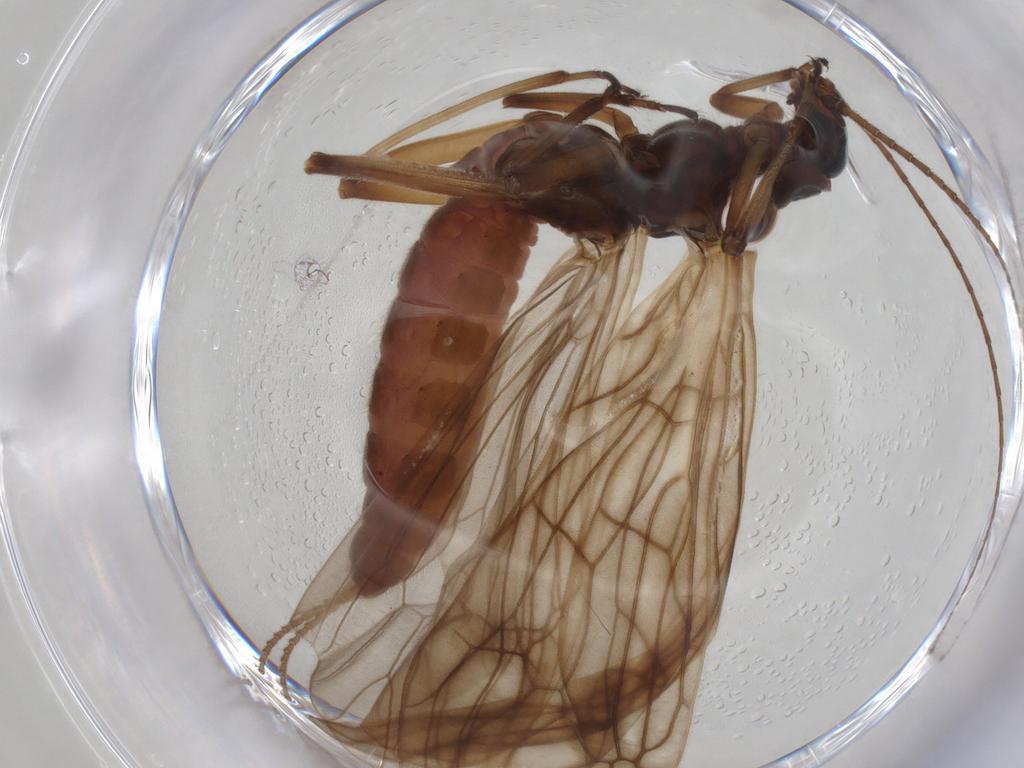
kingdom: Animalia
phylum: Arthropoda
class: Insecta
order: Plecoptera
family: Capniidae
